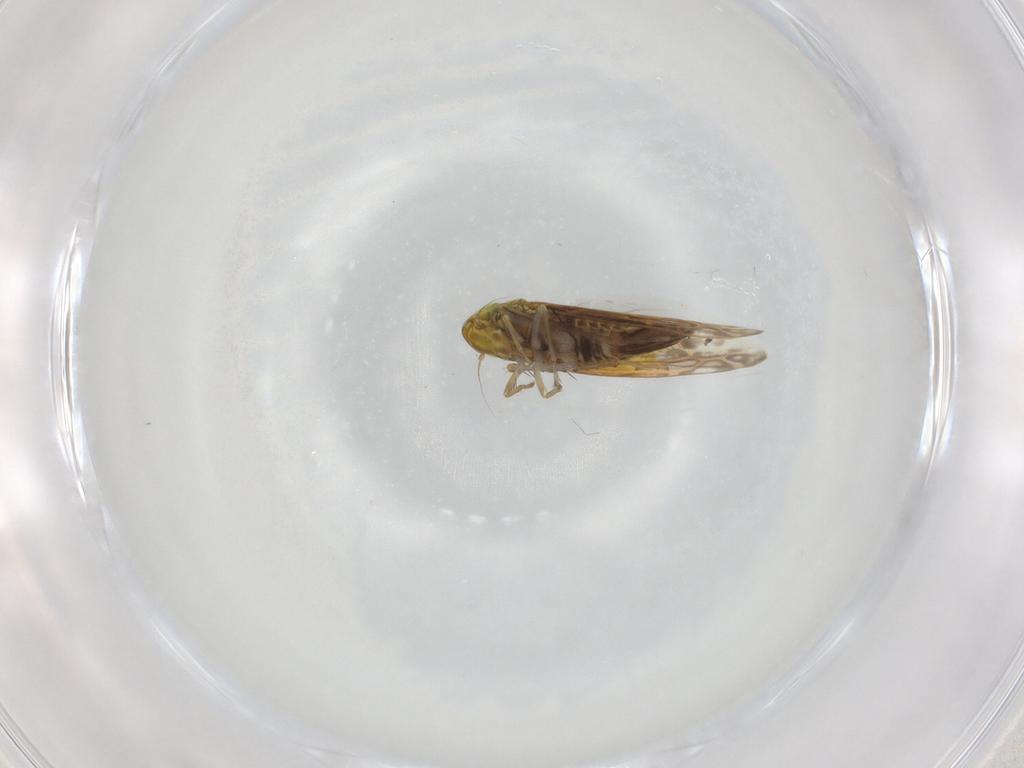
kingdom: Animalia
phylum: Arthropoda
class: Insecta
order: Hemiptera
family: Cicadellidae
